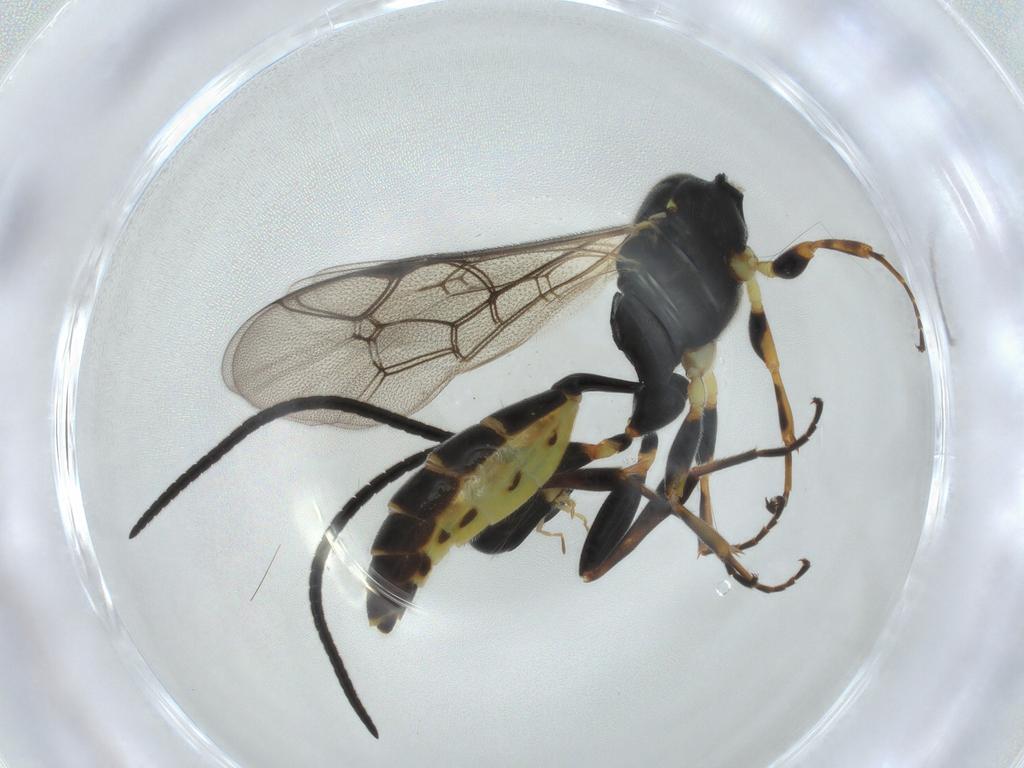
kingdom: Animalia
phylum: Arthropoda
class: Insecta
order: Hymenoptera
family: Ichneumonidae
